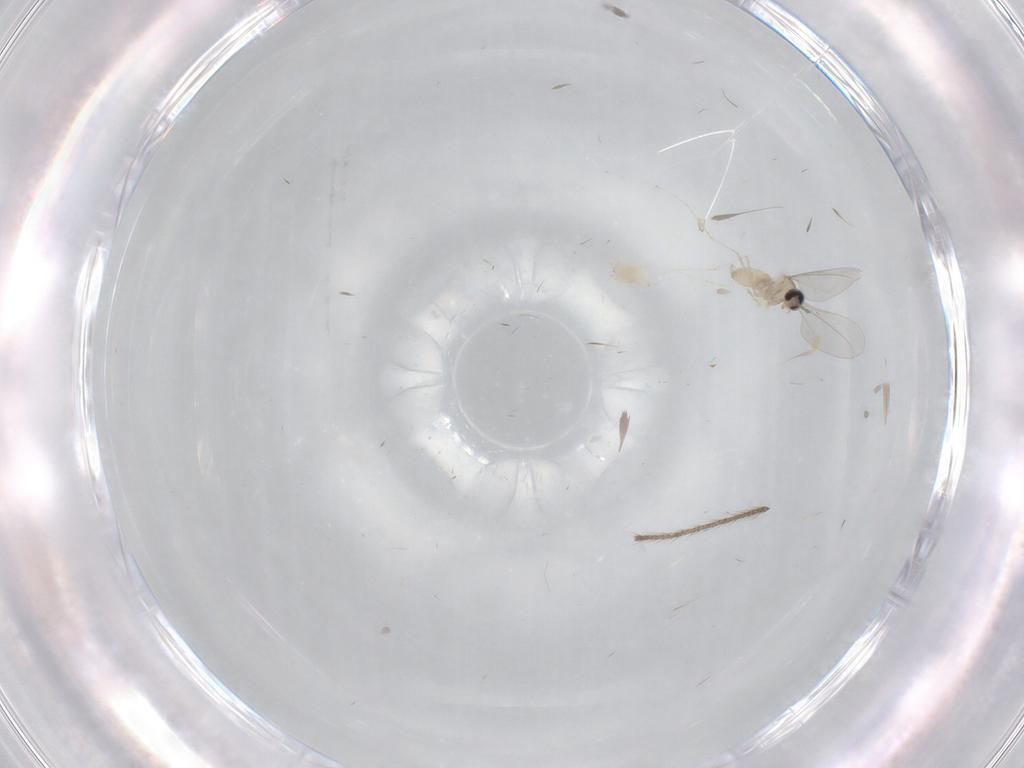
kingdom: Animalia
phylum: Arthropoda
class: Insecta
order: Diptera
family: Cecidomyiidae
